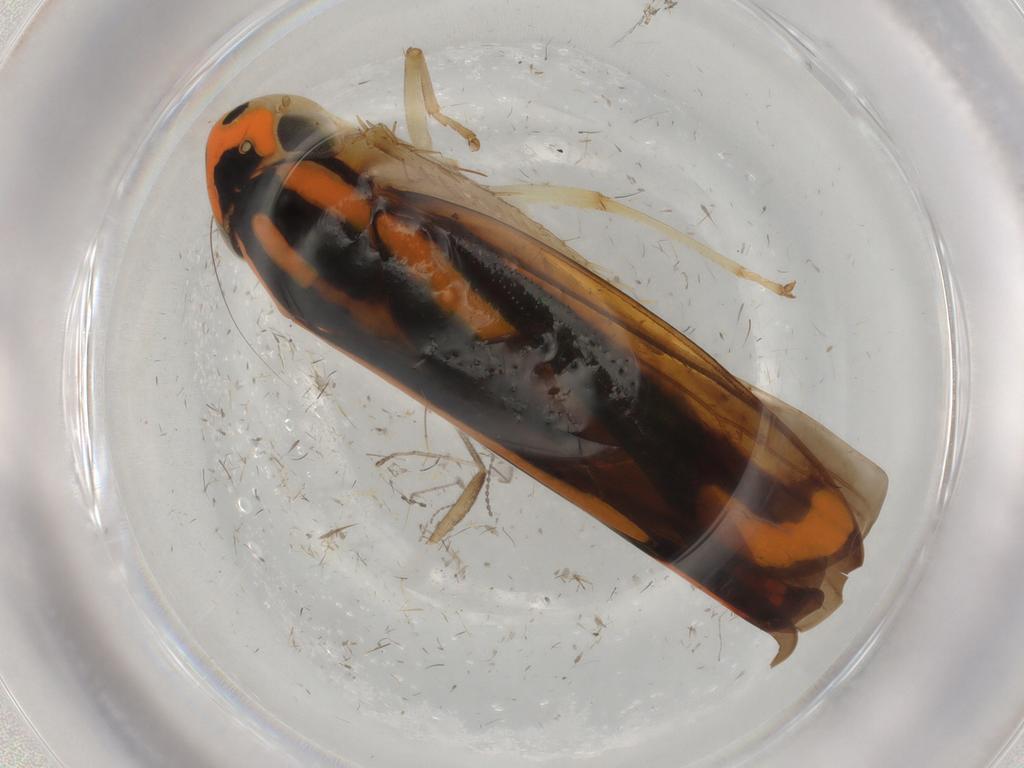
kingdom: Animalia
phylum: Arthropoda
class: Insecta
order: Hemiptera
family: Cicadellidae
